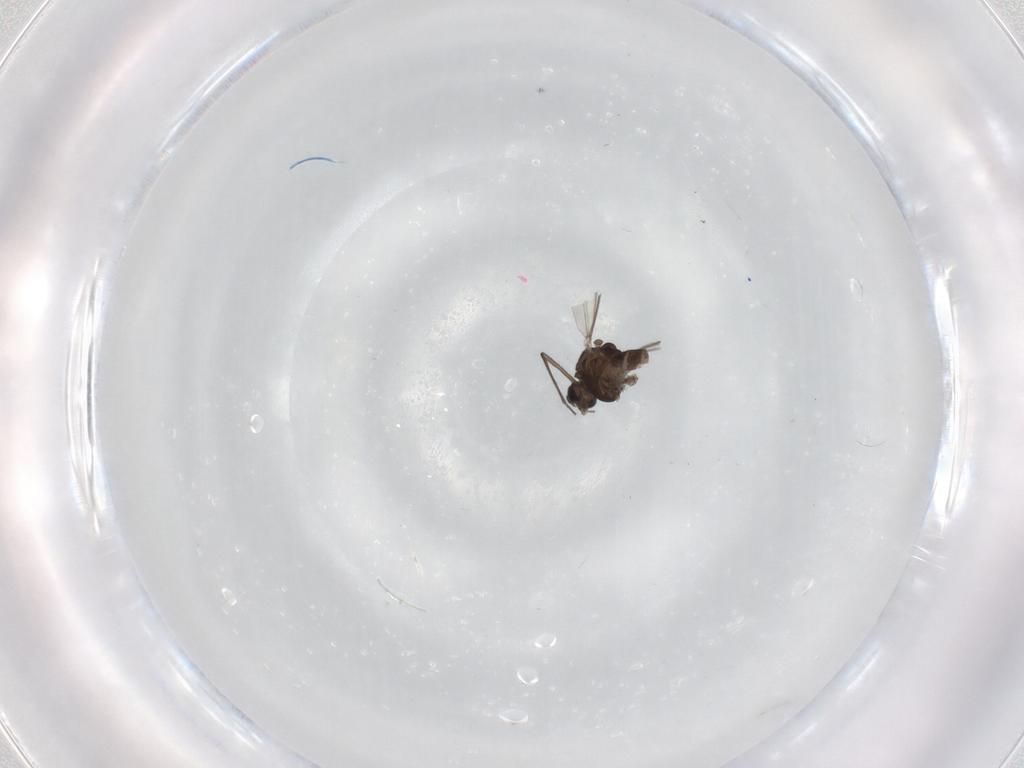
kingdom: Animalia
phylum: Arthropoda
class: Insecta
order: Diptera
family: Chironomidae
